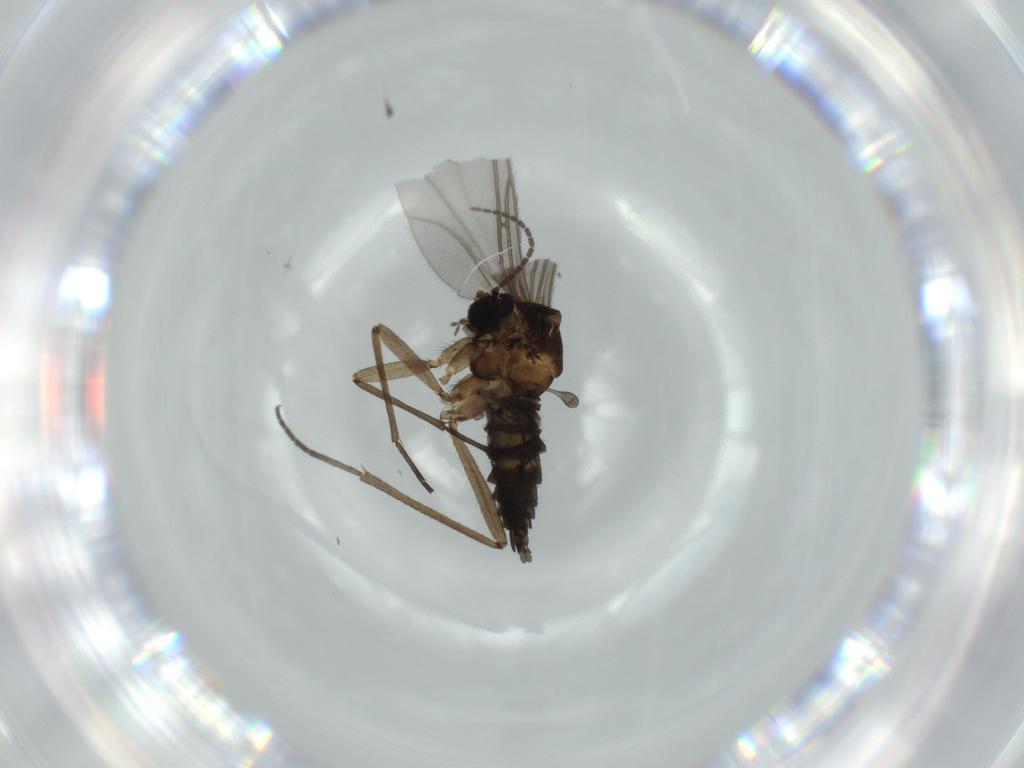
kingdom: Animalia
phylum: Arthropoda
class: Insecta
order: Diptera
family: Sciaridae
